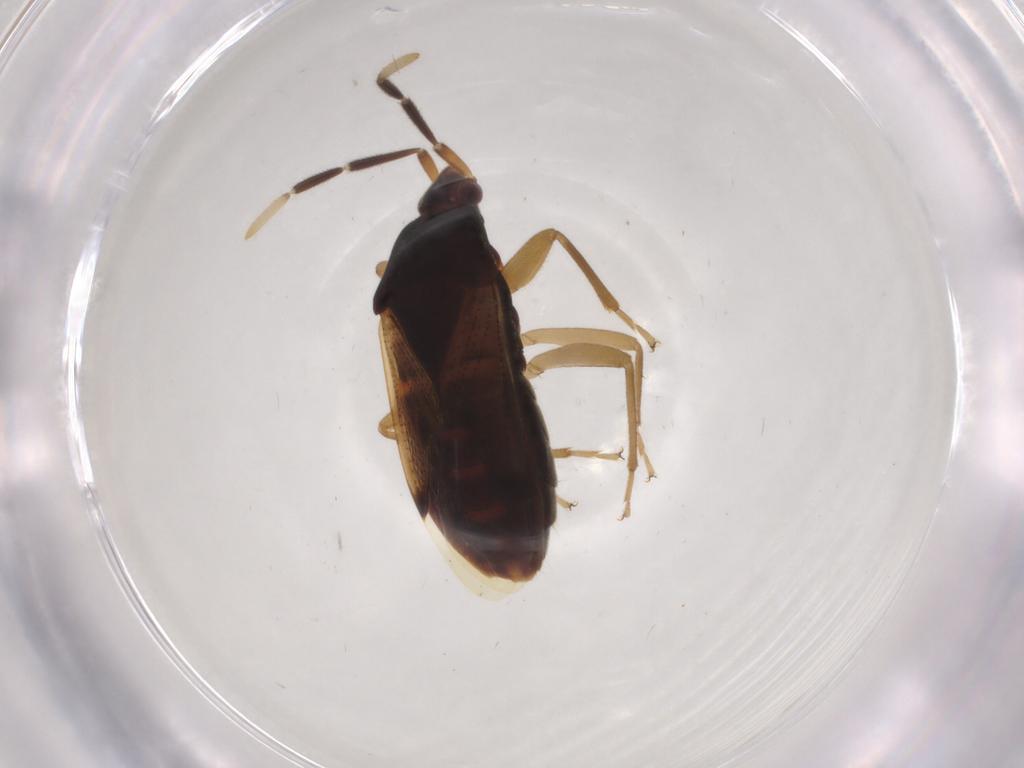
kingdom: Animalia
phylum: Arthropoda
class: Insecta
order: Hemiptera
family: Rhyparochromidae
